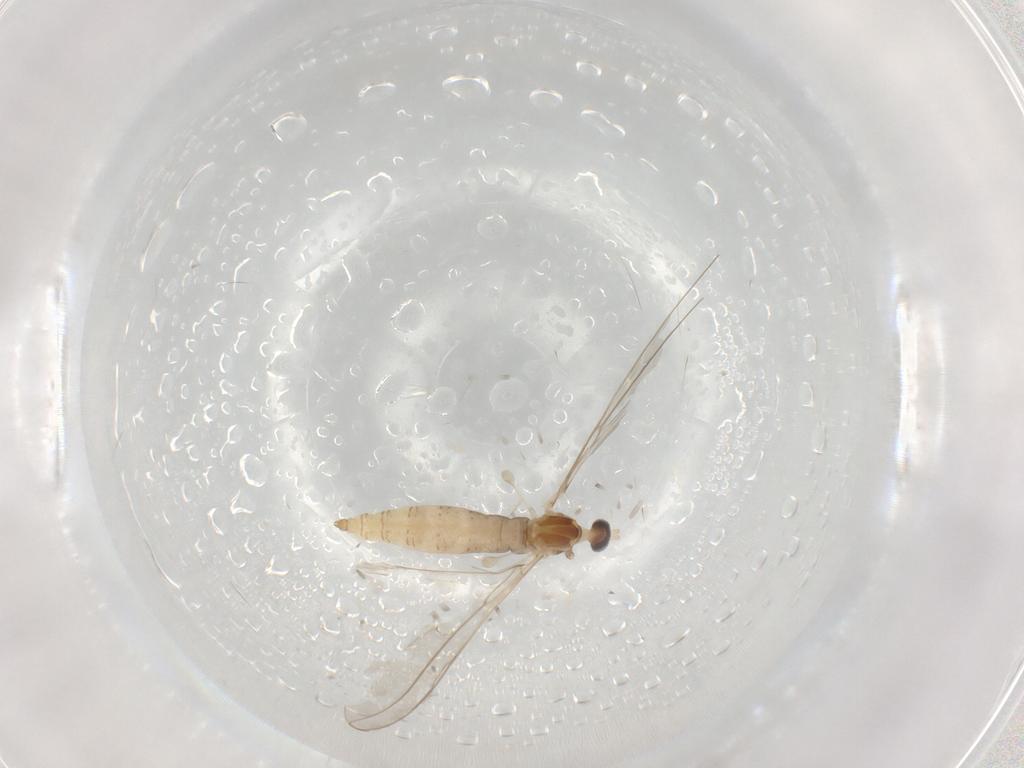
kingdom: Animalia
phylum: Arthropoda
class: Insecta
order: Diptera
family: Cecidomyiidae
